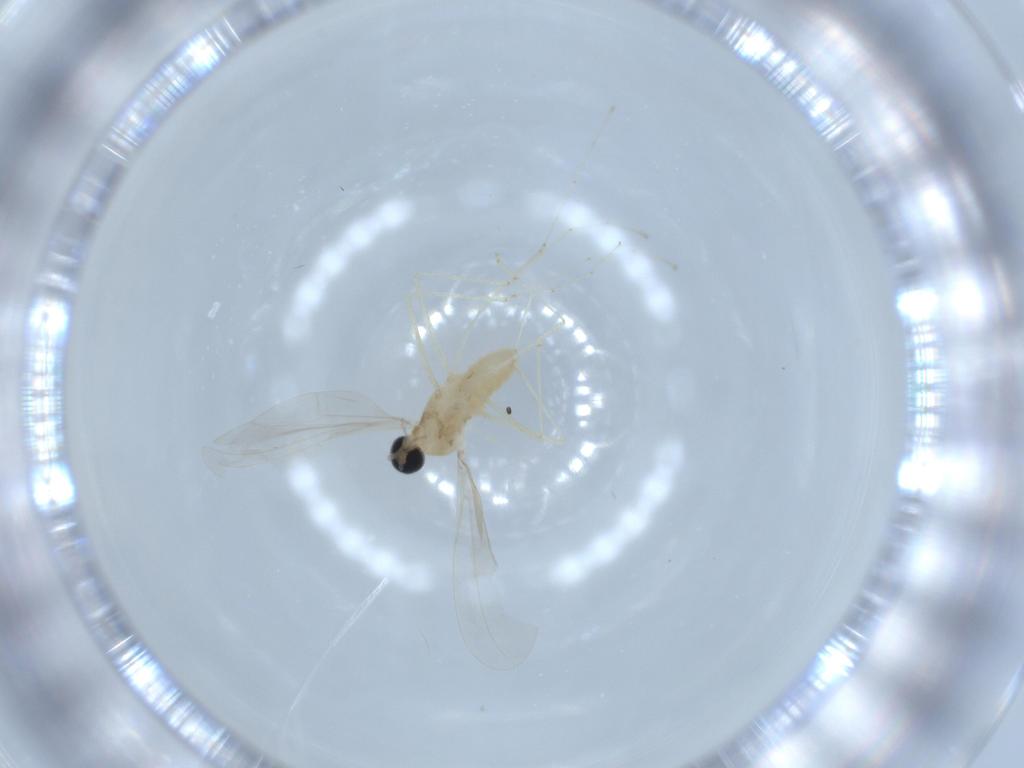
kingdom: Animalia
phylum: Arthropoda
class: Insecta
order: Diptera
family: Cecidomyiidae
